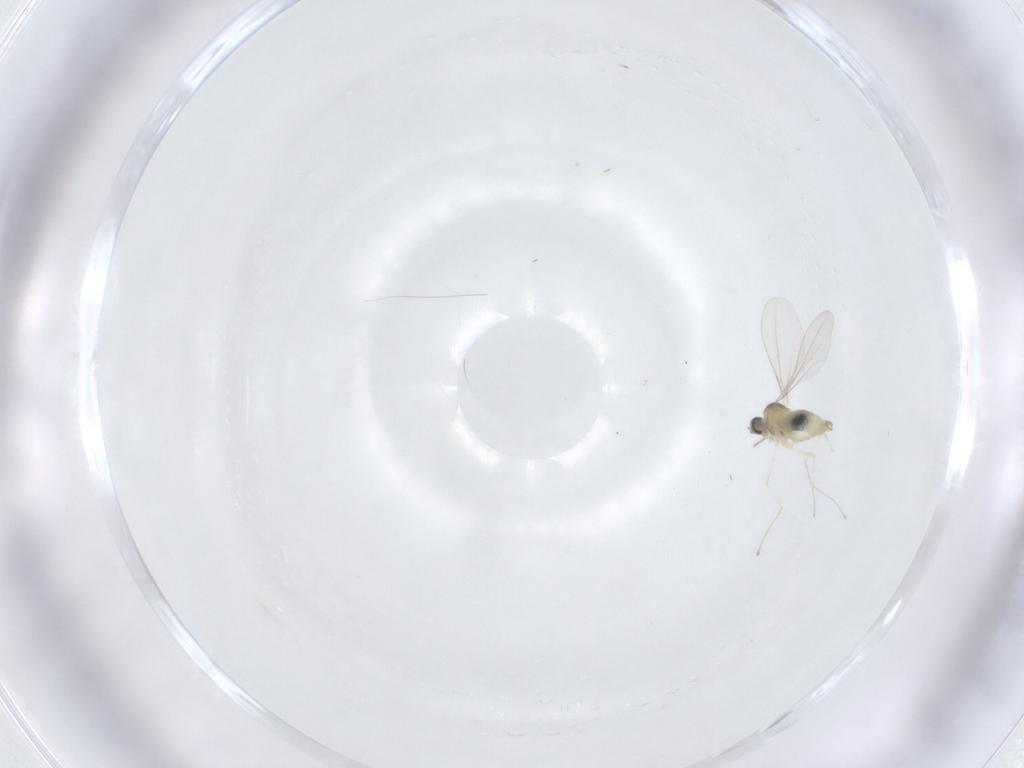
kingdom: Animalia
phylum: Arthropoda
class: Insecta
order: Diptera
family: Cecidomyiidae
